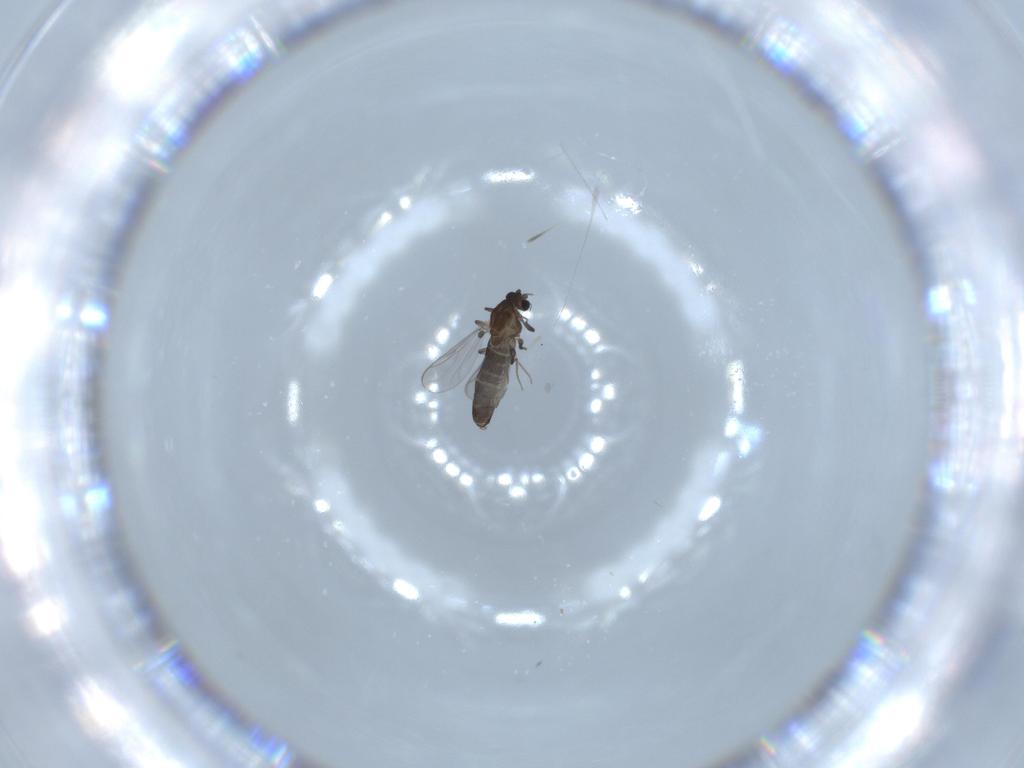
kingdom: Animalia
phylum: Arthropoda
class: Insecta
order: Diptera
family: Chironomidae
